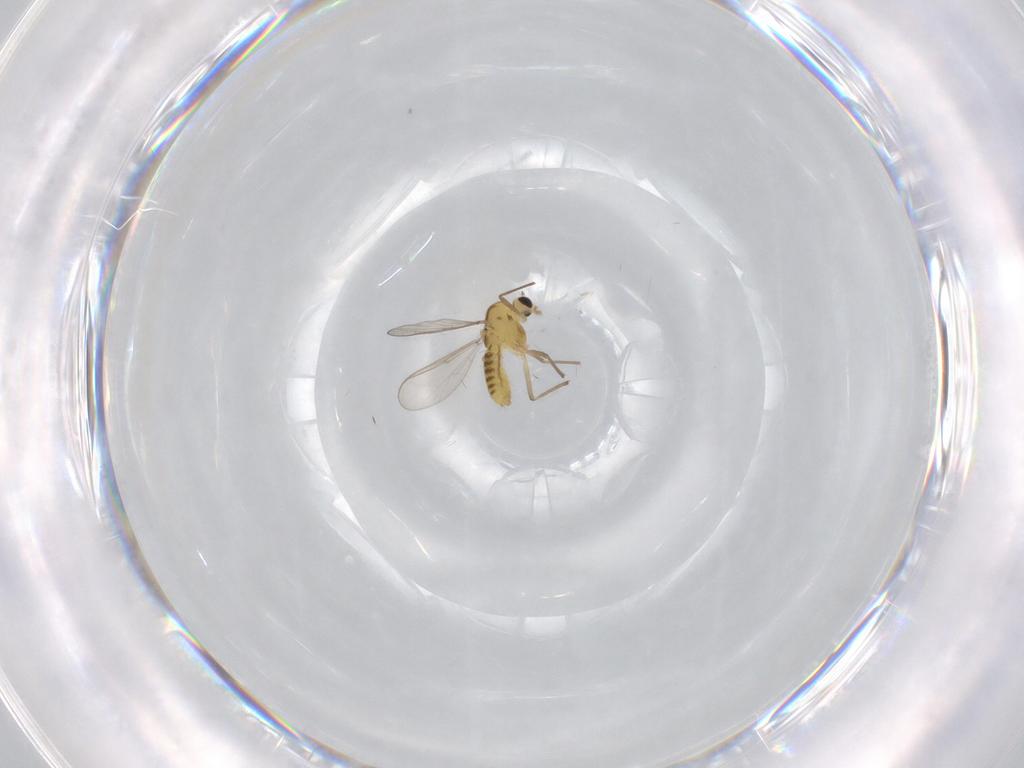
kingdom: Animalia
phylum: Arthropoda
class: Insecta
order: Diptera
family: Chironomidae
